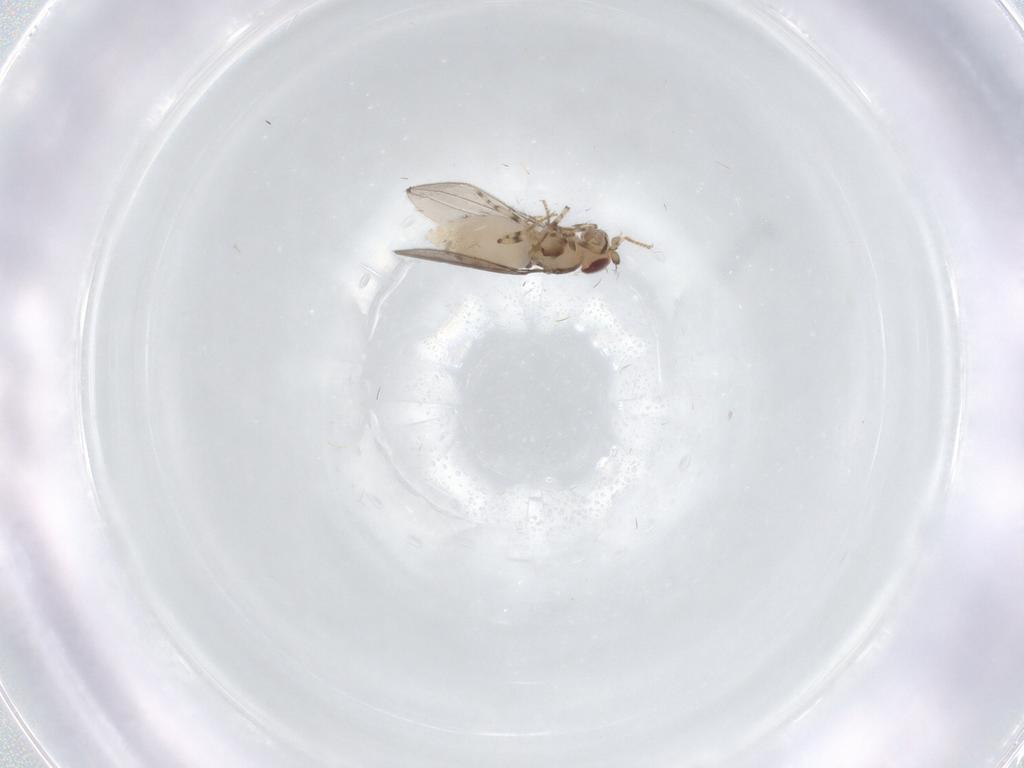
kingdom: Animalia
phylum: Arthropoda
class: Insecta
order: Diptera
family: Asteiidae
